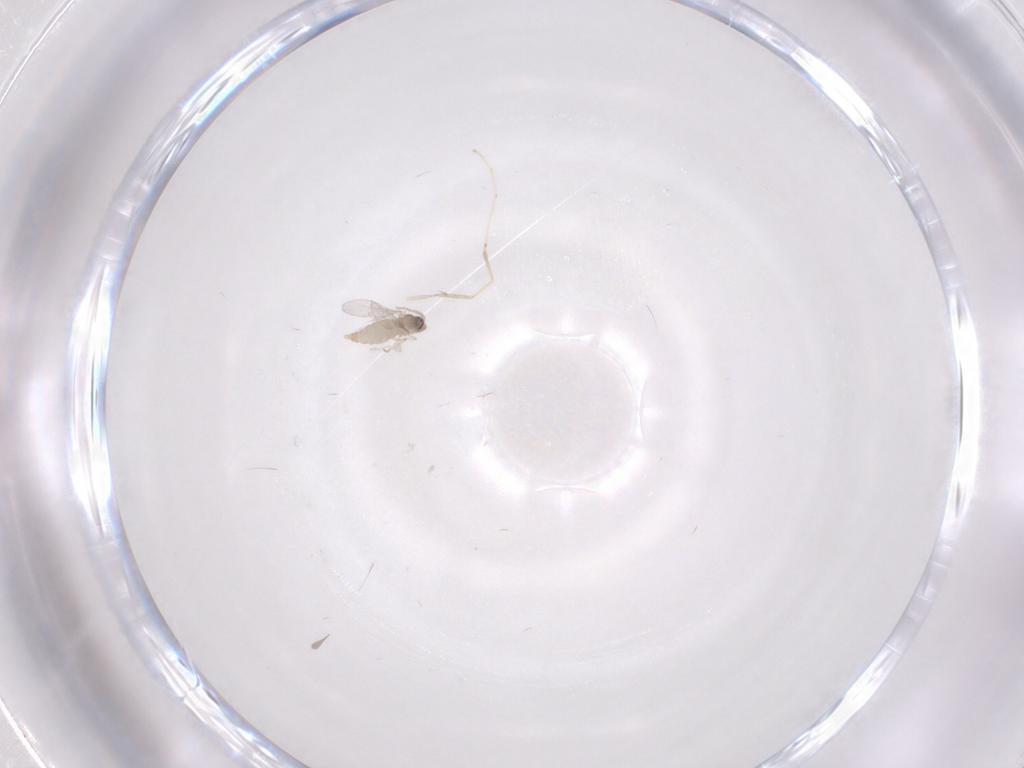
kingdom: Animalia
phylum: Arthropoda
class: Insecta
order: Diptera
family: Cecidomyiidae
